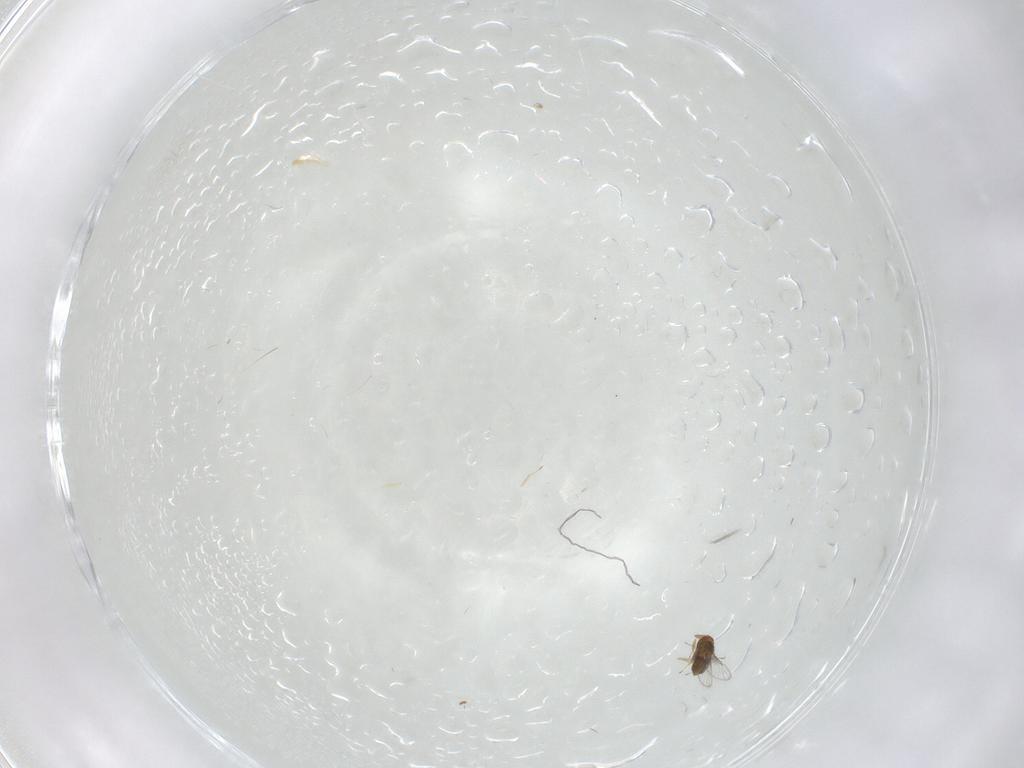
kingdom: Animalia
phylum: Arthropoda
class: Insecta
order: Hymenoptera
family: Trichogrammatidae
